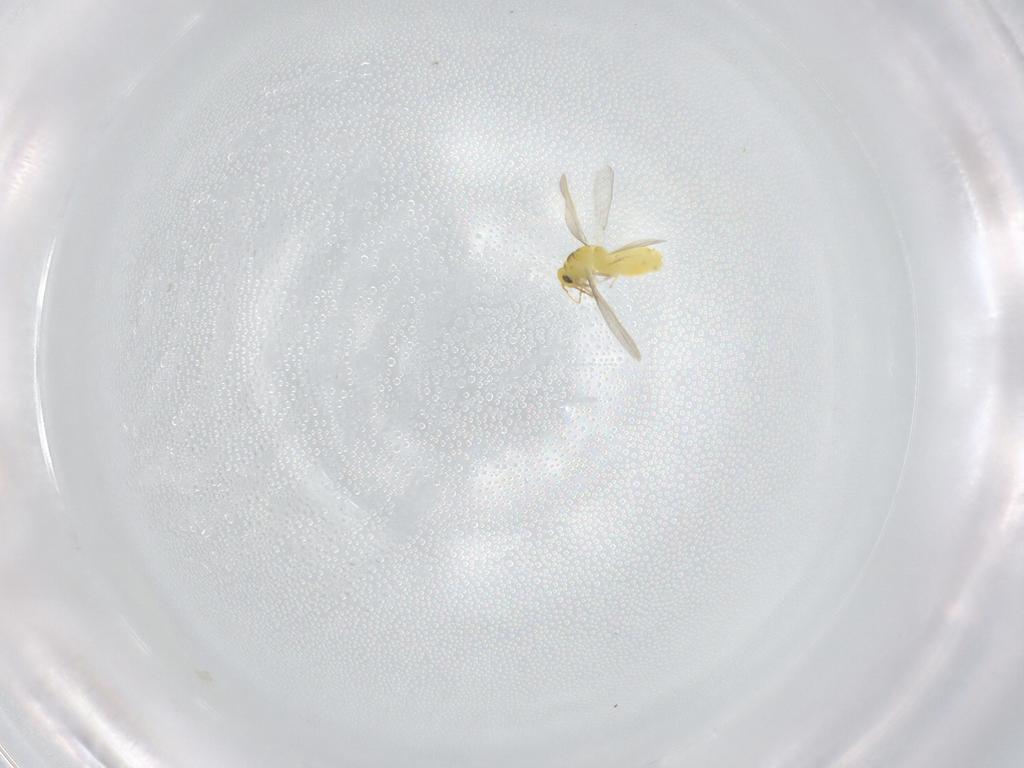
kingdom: Animalia
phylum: Arthropoda
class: Insecta
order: Hemiptera
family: Aleyrodidae
